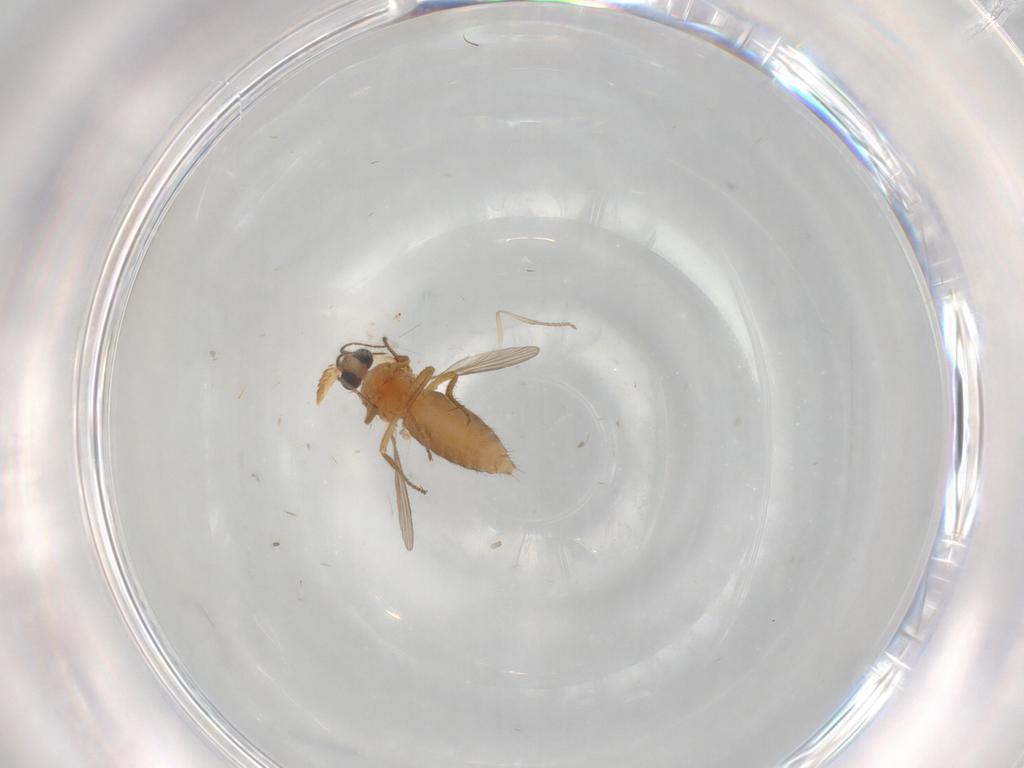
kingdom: Animalia
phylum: Arthropoda
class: Insecta
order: Diptera
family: Ceratopogonidae
